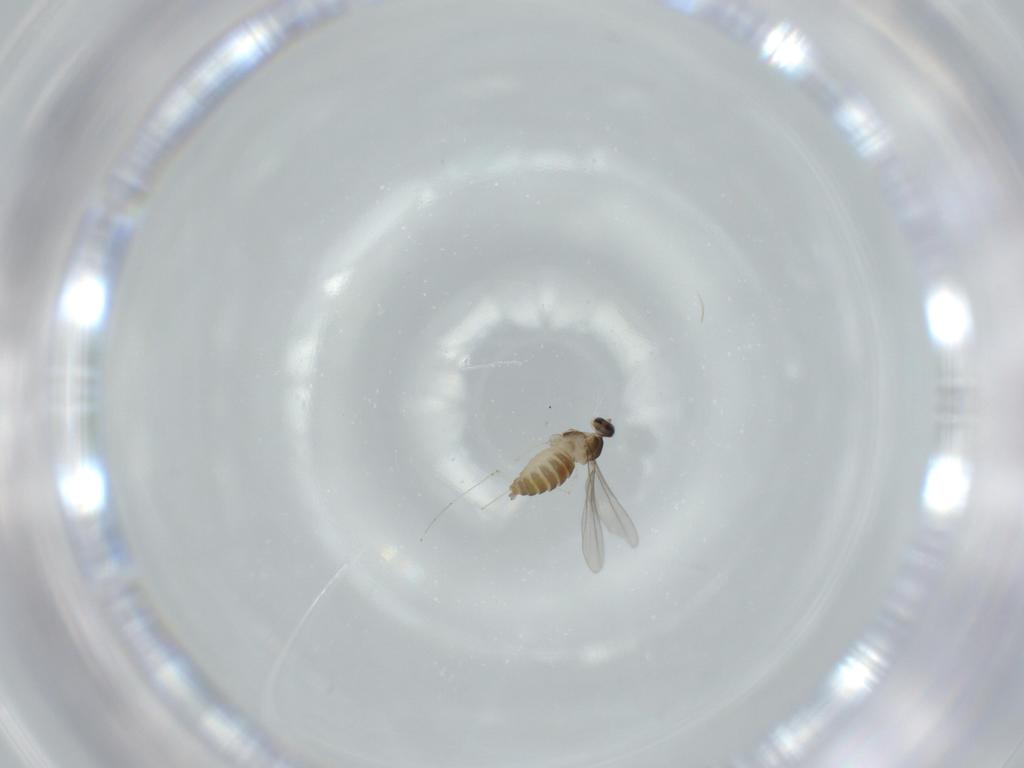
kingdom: Animalia
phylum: Arthropoda
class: Insecta
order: Diptera
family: Cecidomyiidae
